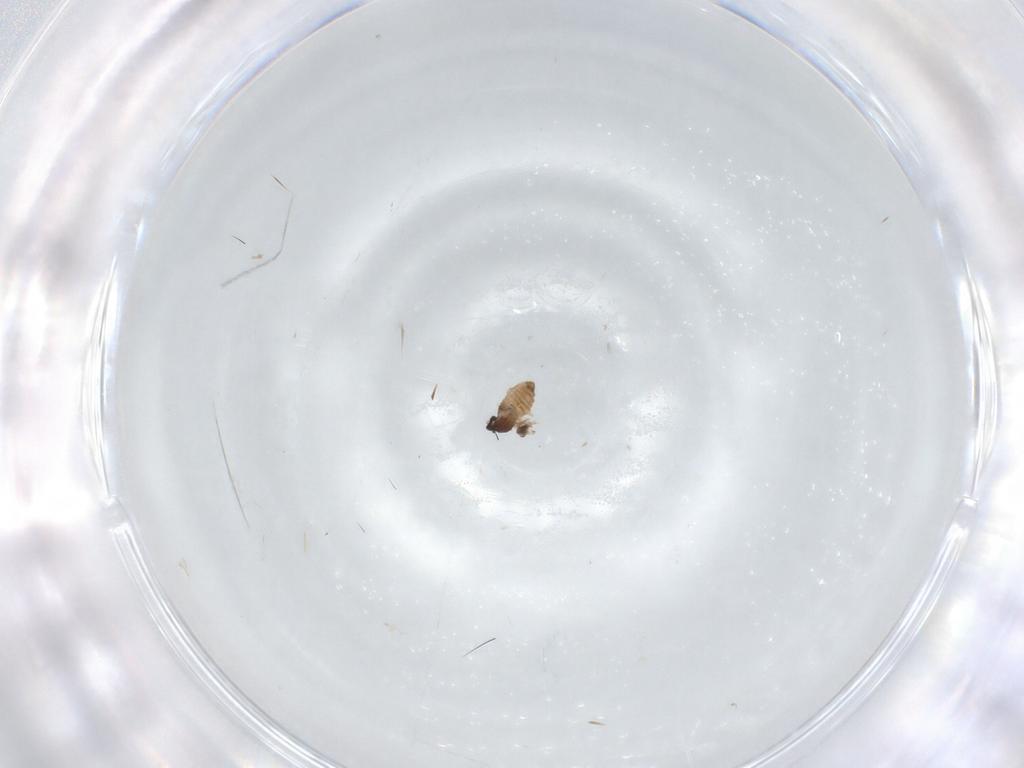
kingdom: Animalia
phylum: Arthropoda
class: Insecta
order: Diptera
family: Cecidomyiidae
